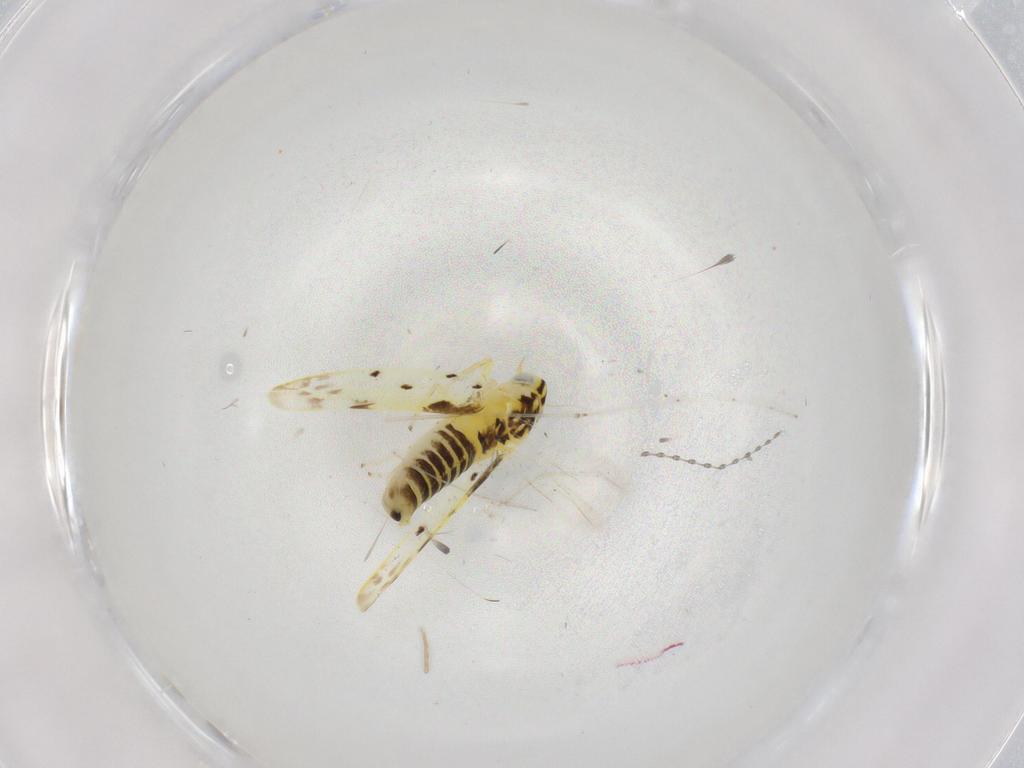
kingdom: Animalia
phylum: Arthropoda
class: Insecta
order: Hemiptera
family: Cicadellidae
